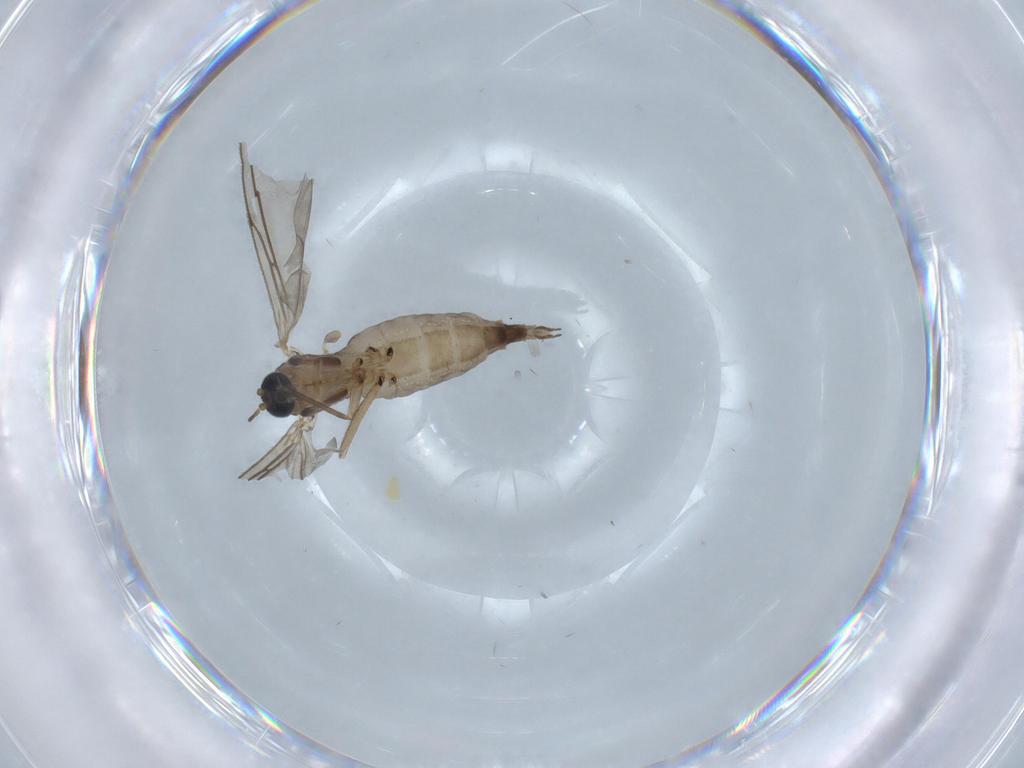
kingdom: Animalia
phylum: Arthropoda
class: Insecta
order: Diptera
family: Sciaridae
